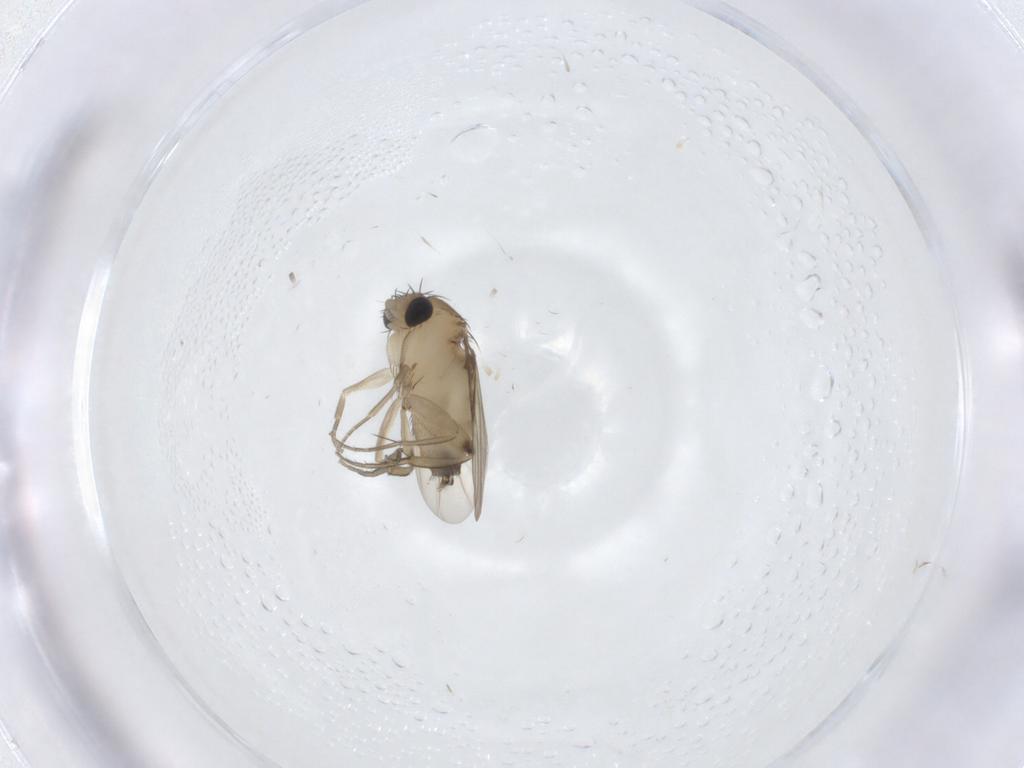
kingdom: Animalia
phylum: Arthropoda
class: Insecta
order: Diptera
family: Phoridae
